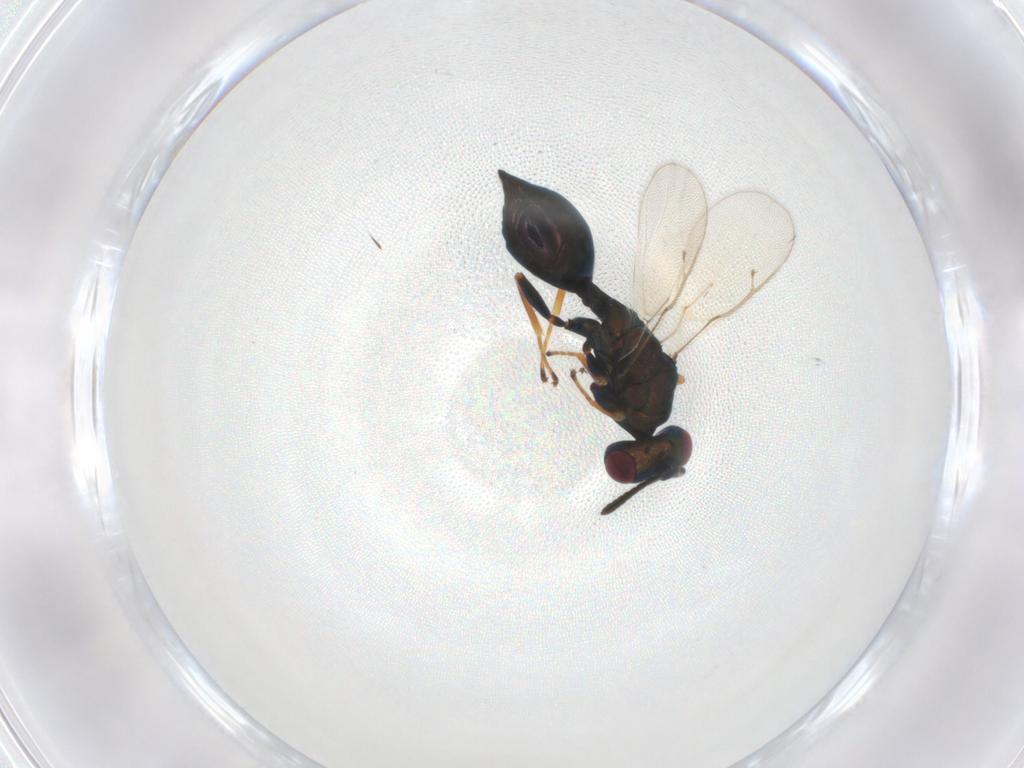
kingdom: Animalia
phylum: Arthropoda
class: Insecta
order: Hymenoptera
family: Pteromalidae
